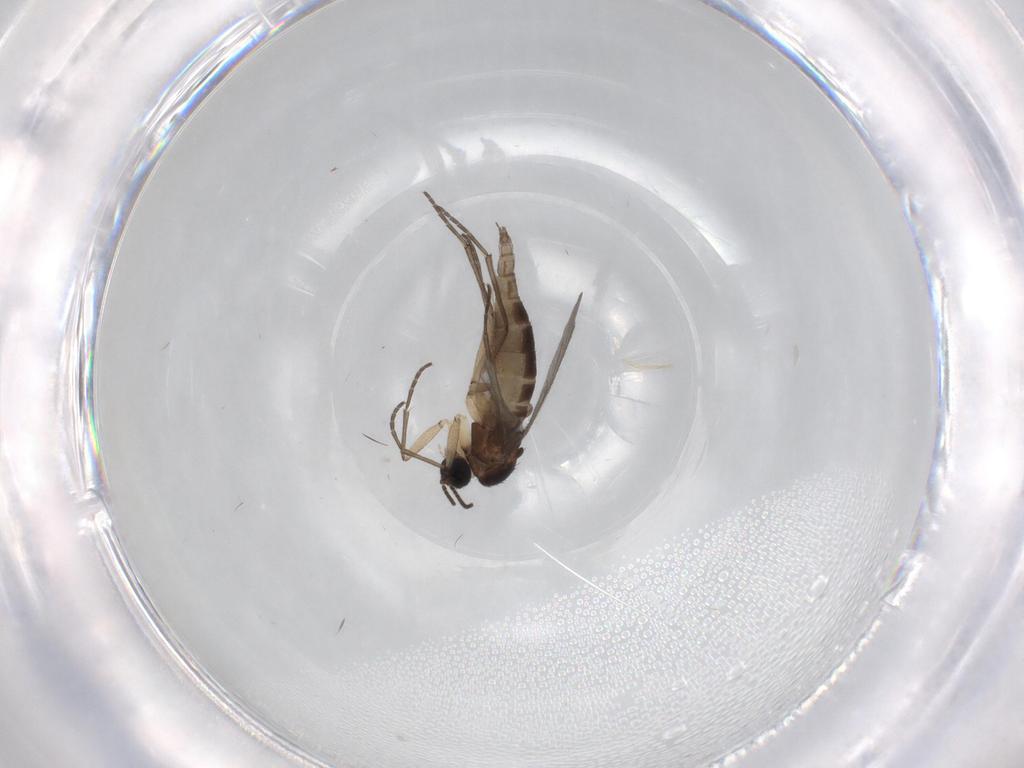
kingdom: Animalia
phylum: Arthropoda
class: Insecta
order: Diptera
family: Sciaridae
